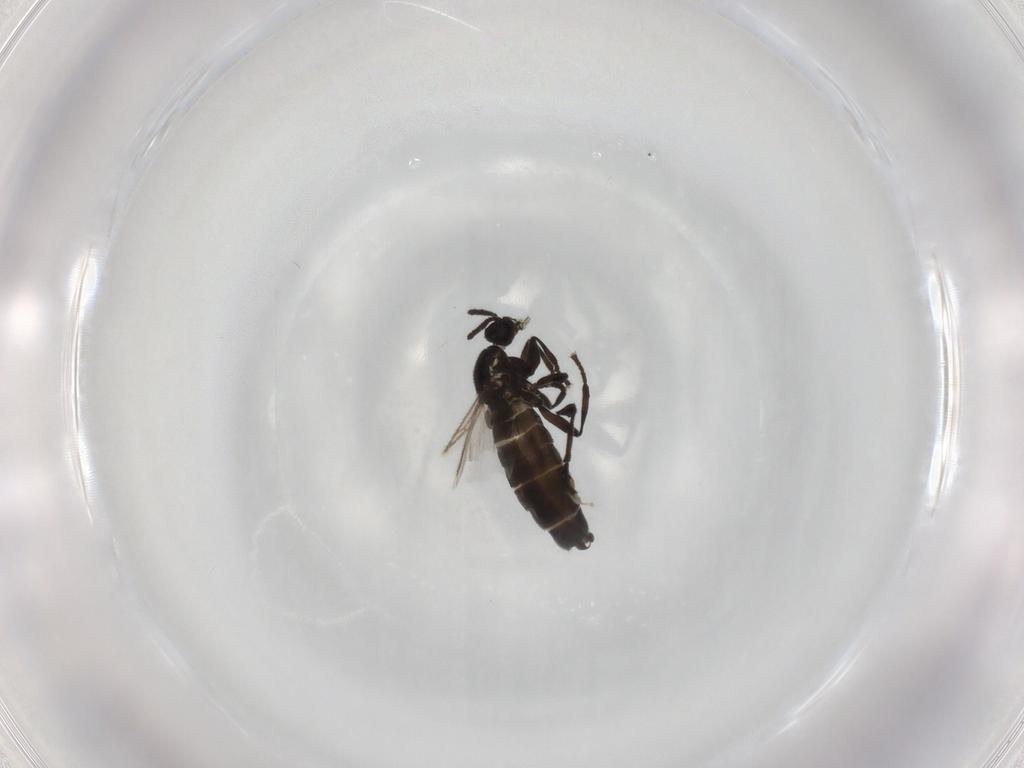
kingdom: Animalia
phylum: Arthropoda
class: Insecta
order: Diptera
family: Scatopsidae
